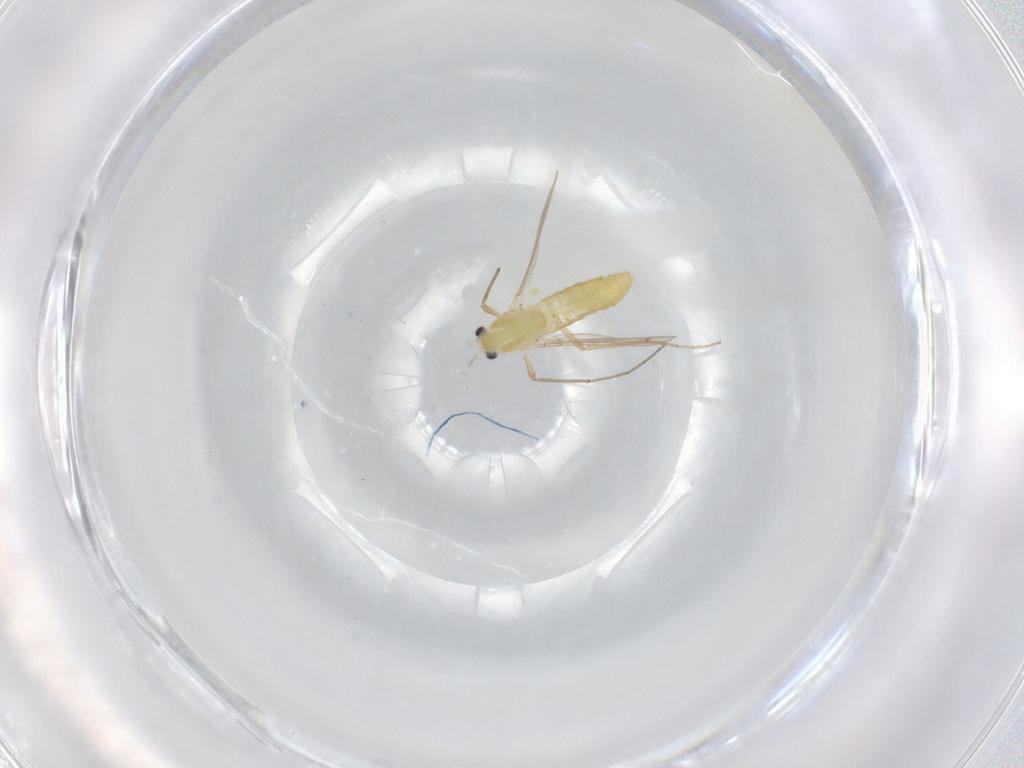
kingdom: Animalia
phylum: Arthropoda
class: Insecta
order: Diptera
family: Chironomidae
